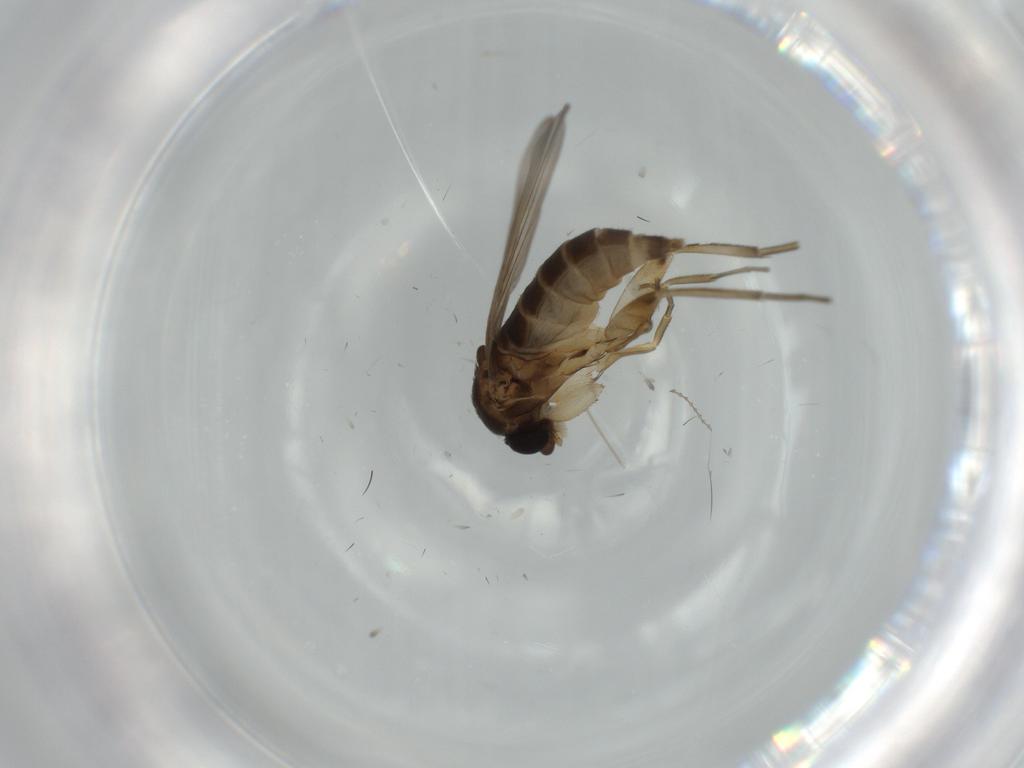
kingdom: Animalia
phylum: Arthropoda
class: Insecta
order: Diptera
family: Phoridae
